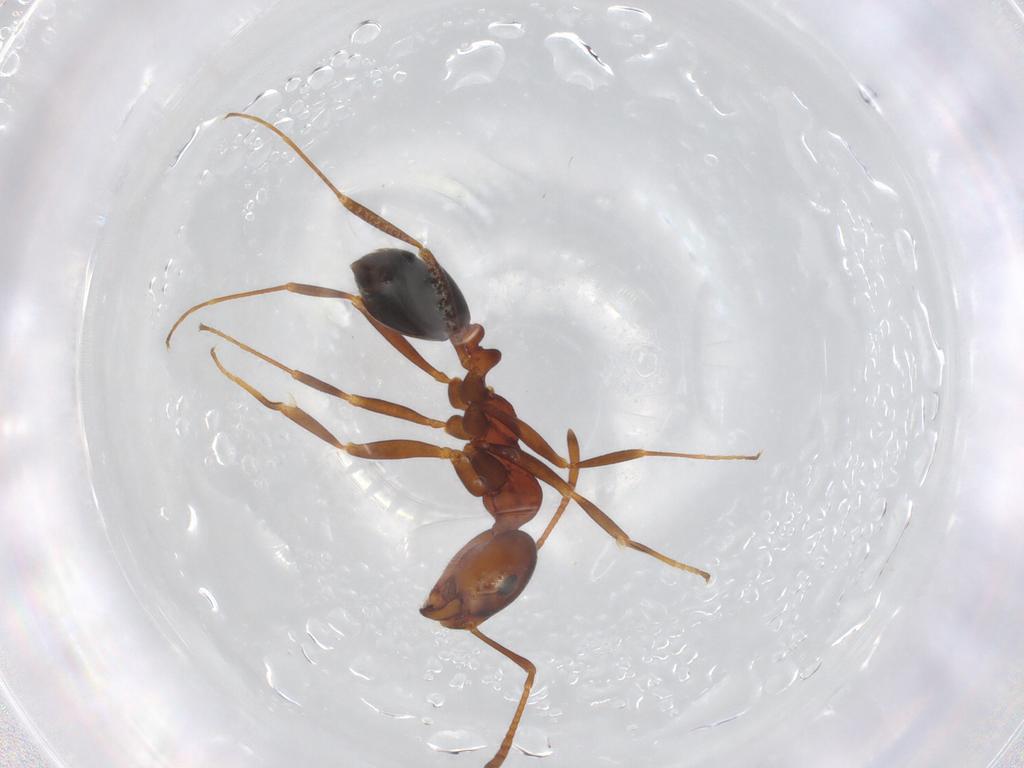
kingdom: Animalia
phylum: Arthropoda
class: Insecta
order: Hymenoptera
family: Formicidae
